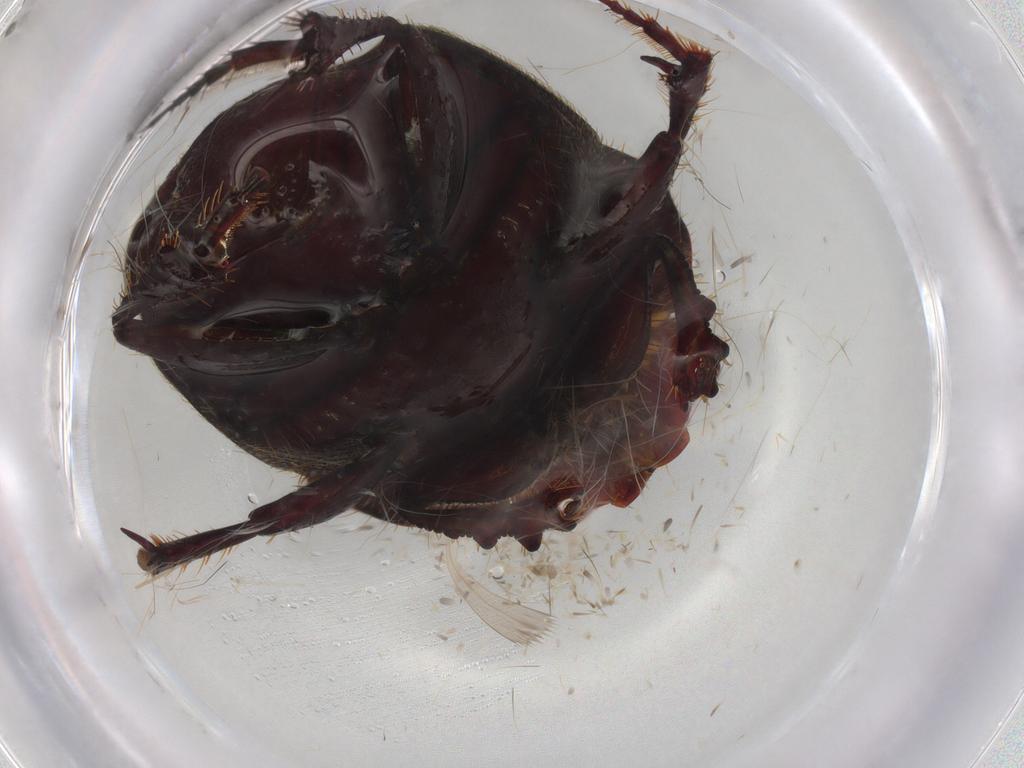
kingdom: Animalia
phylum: Arthropoda
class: Insecta
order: Coleoptera
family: Scarabaeidae
